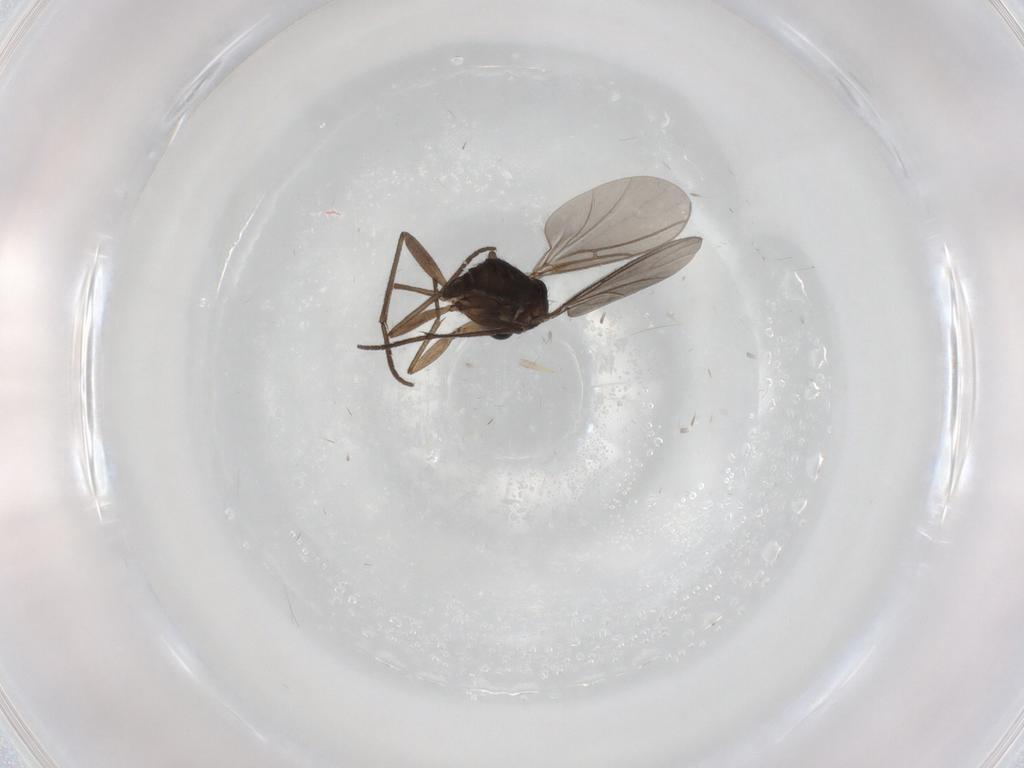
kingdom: Animalia
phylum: Arthropoda
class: Insecta
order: Diptera
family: Sciaridae
